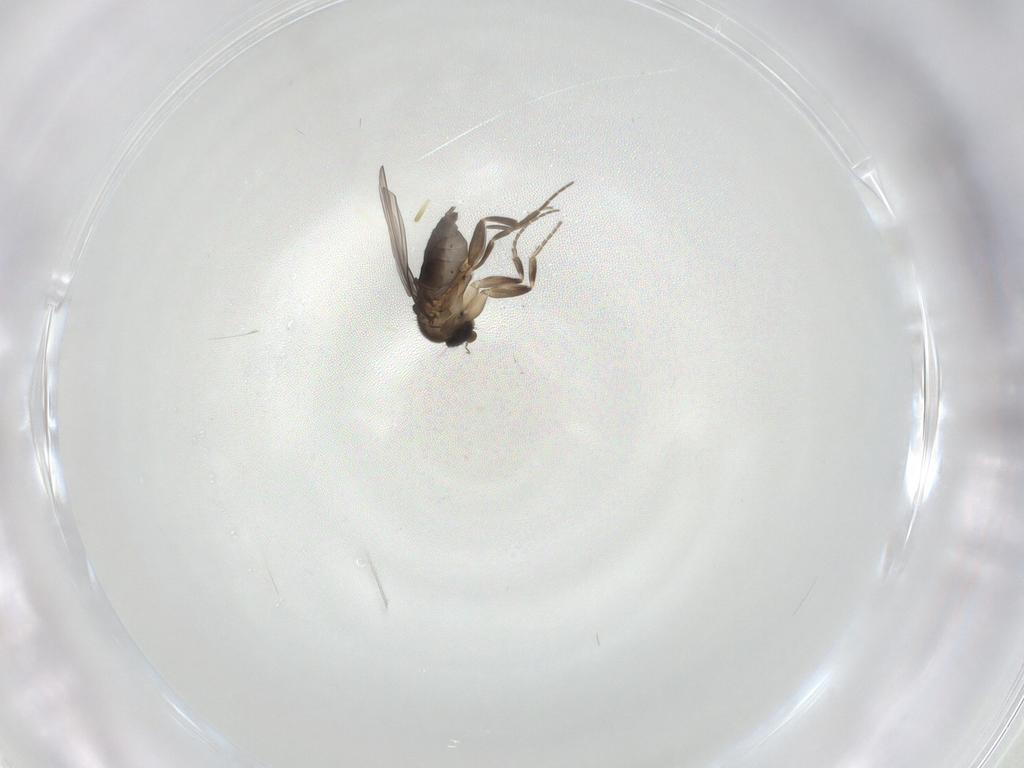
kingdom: Animalia
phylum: Arthropoda
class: Insecta
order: Diptera
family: Chironomidae
